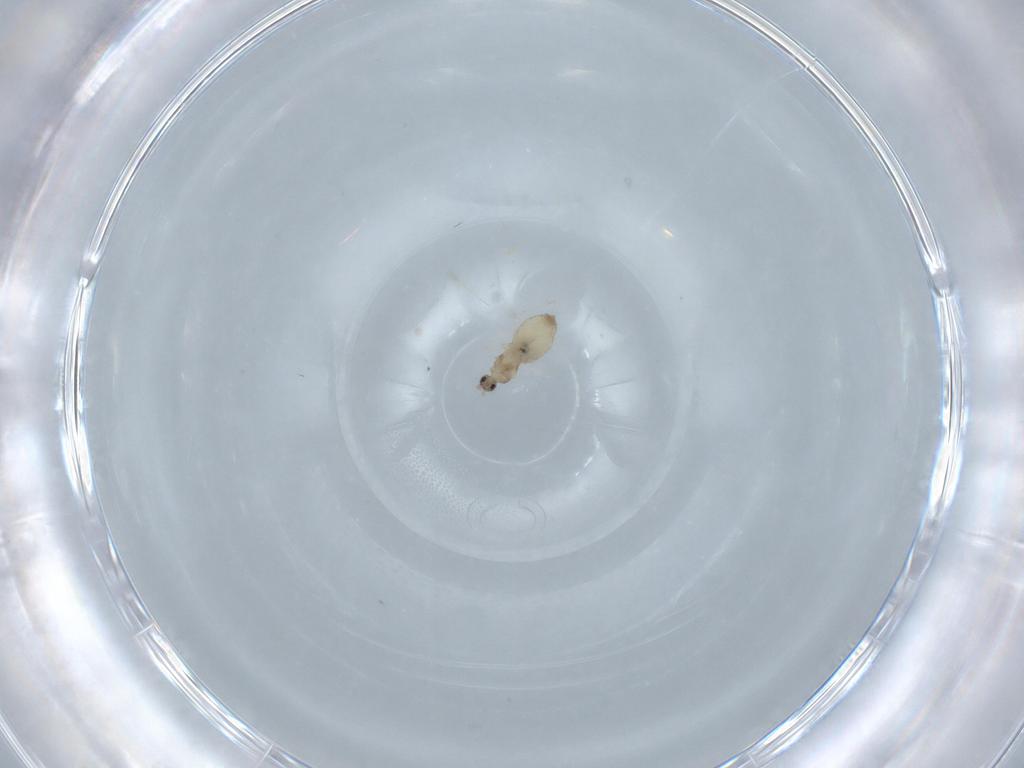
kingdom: Animalia
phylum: Arthropoda
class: Insecta
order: Diptera
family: Cecidomyiidae
